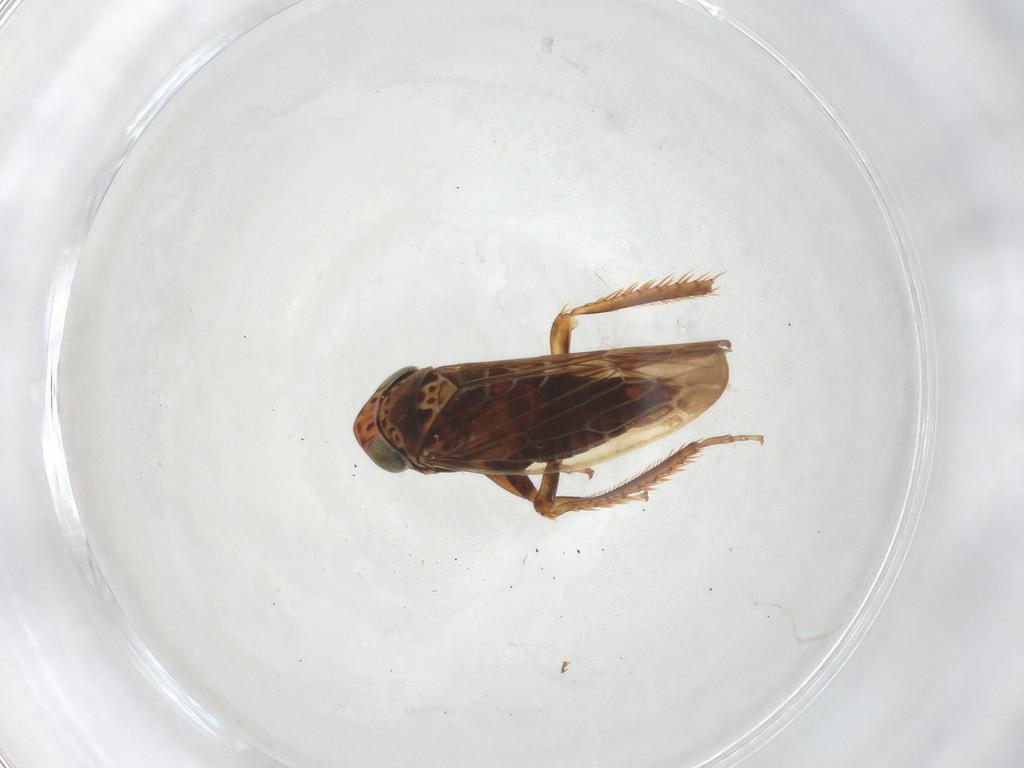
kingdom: Animalia
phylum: Arthropoda
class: Insecta
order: Hemiptera
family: Cicadellidae
